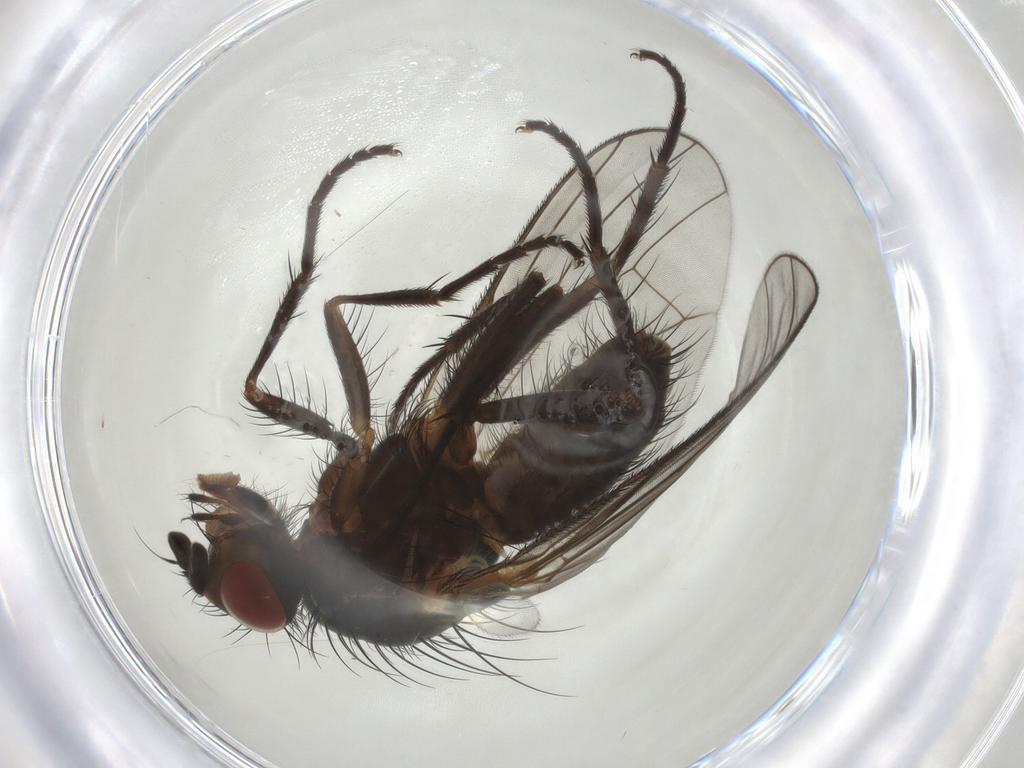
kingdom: Animalia
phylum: Arthropoda
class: Insecta
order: Diptera
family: Anthomyiidae
